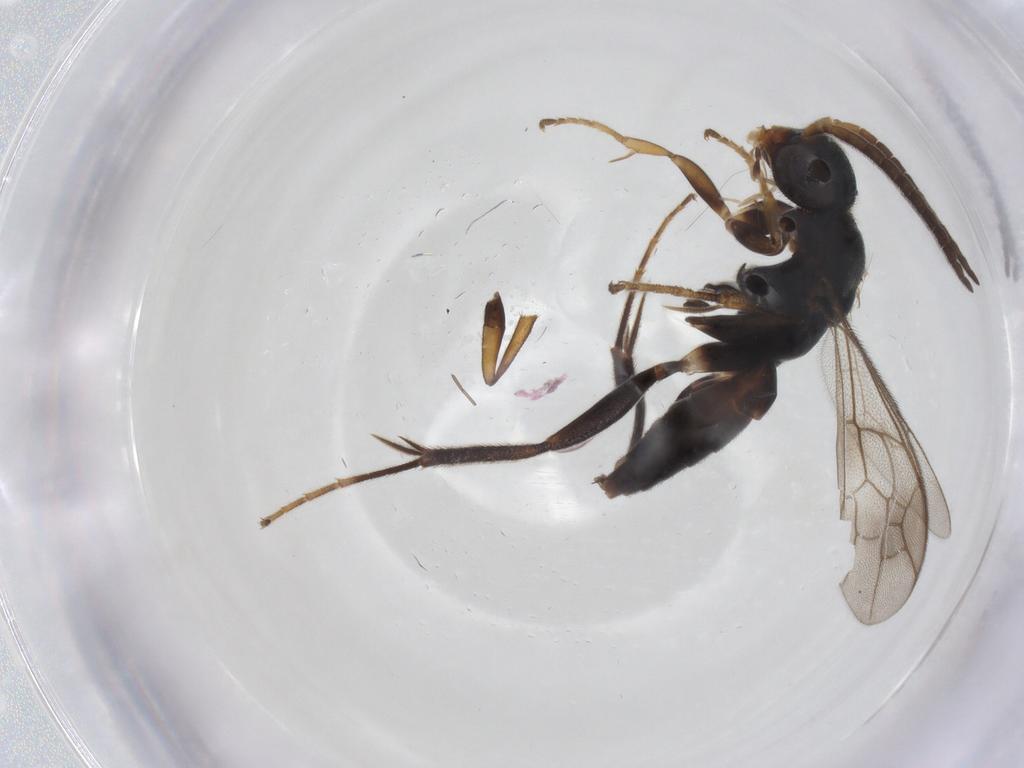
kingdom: Animalia
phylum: Arthropoda
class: Insecta
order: Hymenoptera
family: Pompilidae
